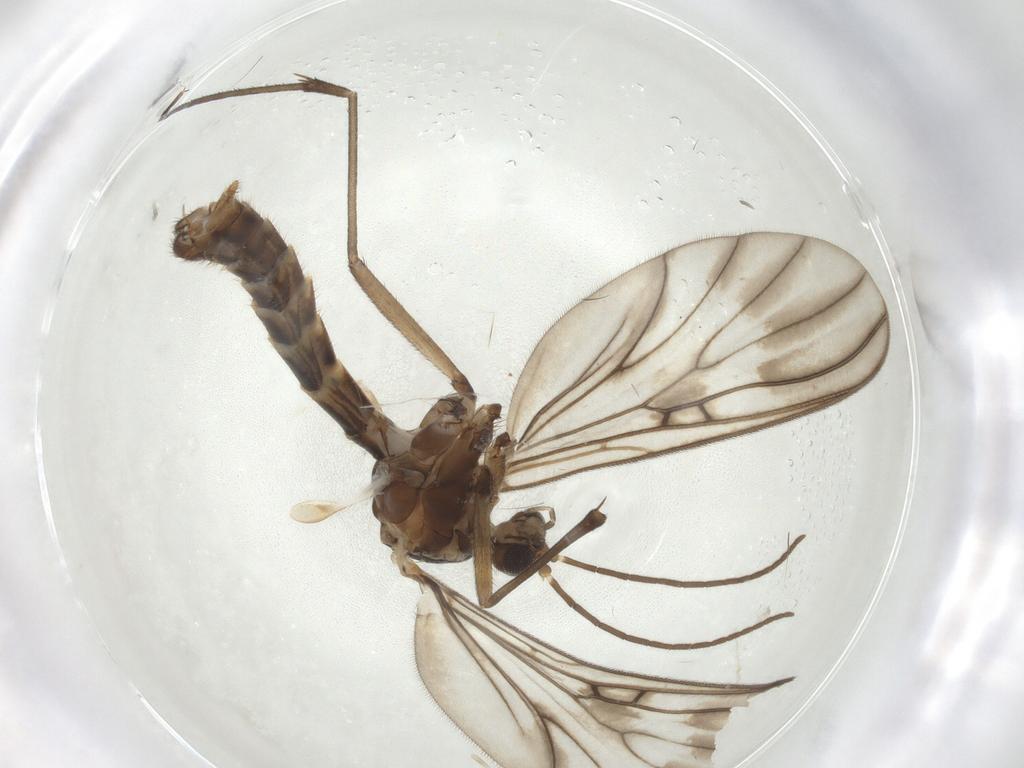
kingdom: Animalia
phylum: Arthropoda
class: Insecta
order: Diptera
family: Mycetophilidae
